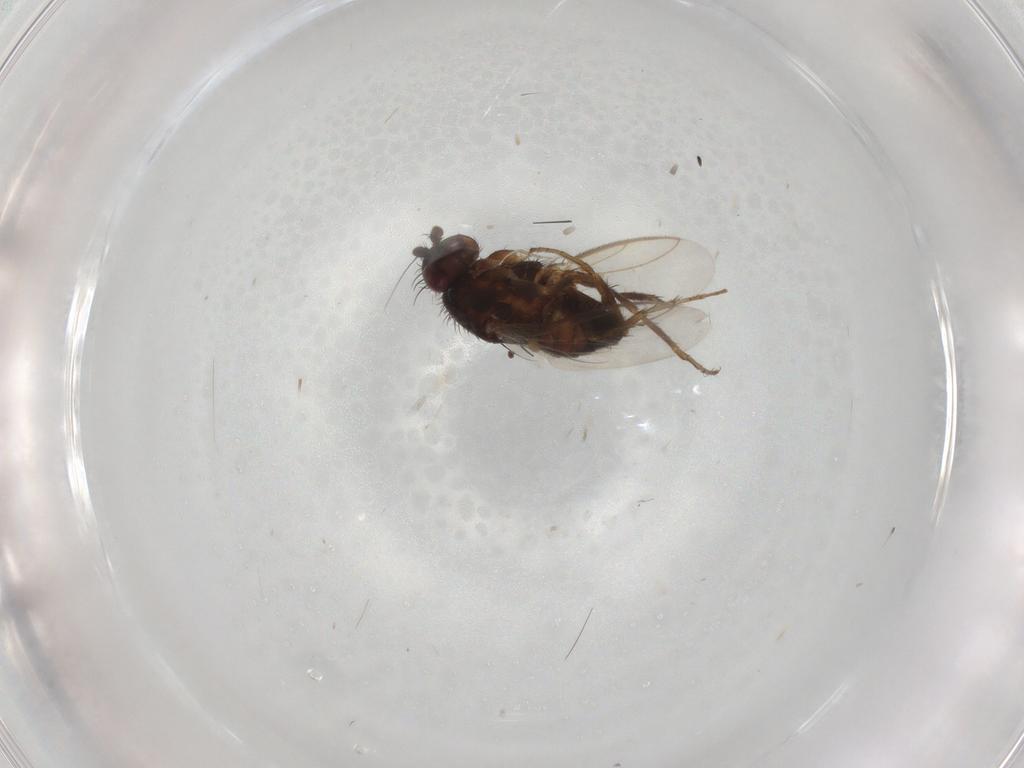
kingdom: Animalia
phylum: Arthropoda
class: Insecta
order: Diptera
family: Sphaeroceridae
